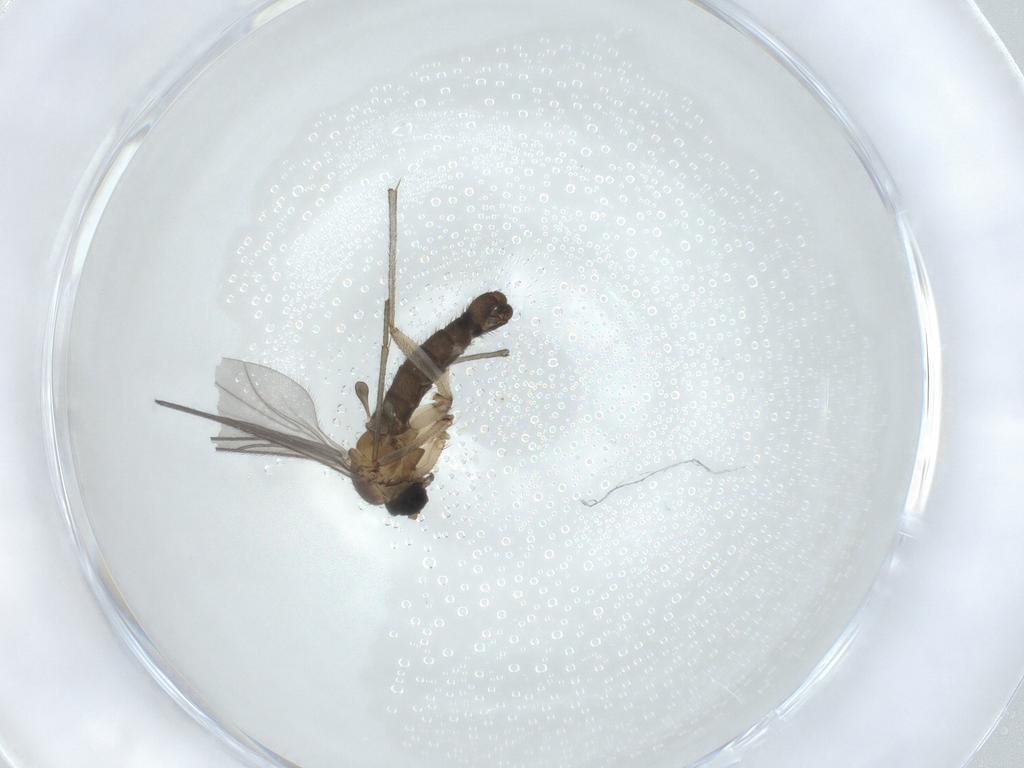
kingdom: Animalia
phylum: Arthropoda
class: Insecta
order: Diptera
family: Sciaridae
